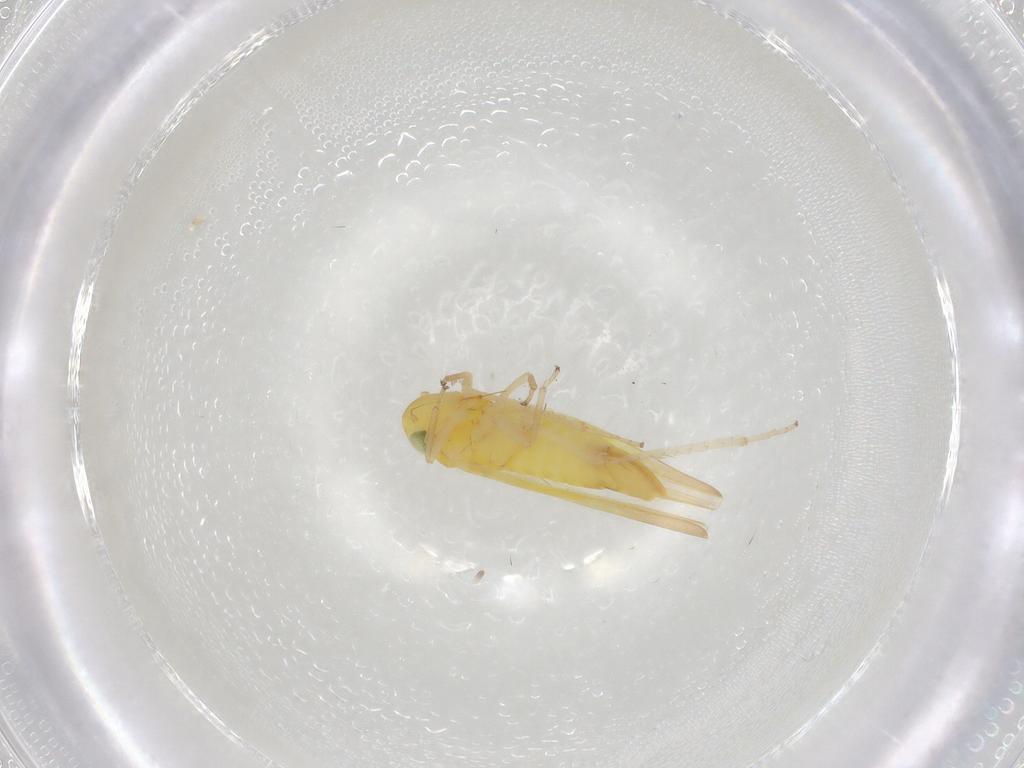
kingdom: Animalia
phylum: Arthropoda
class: Insecta
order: Hemiptera
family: Cicadellidae
